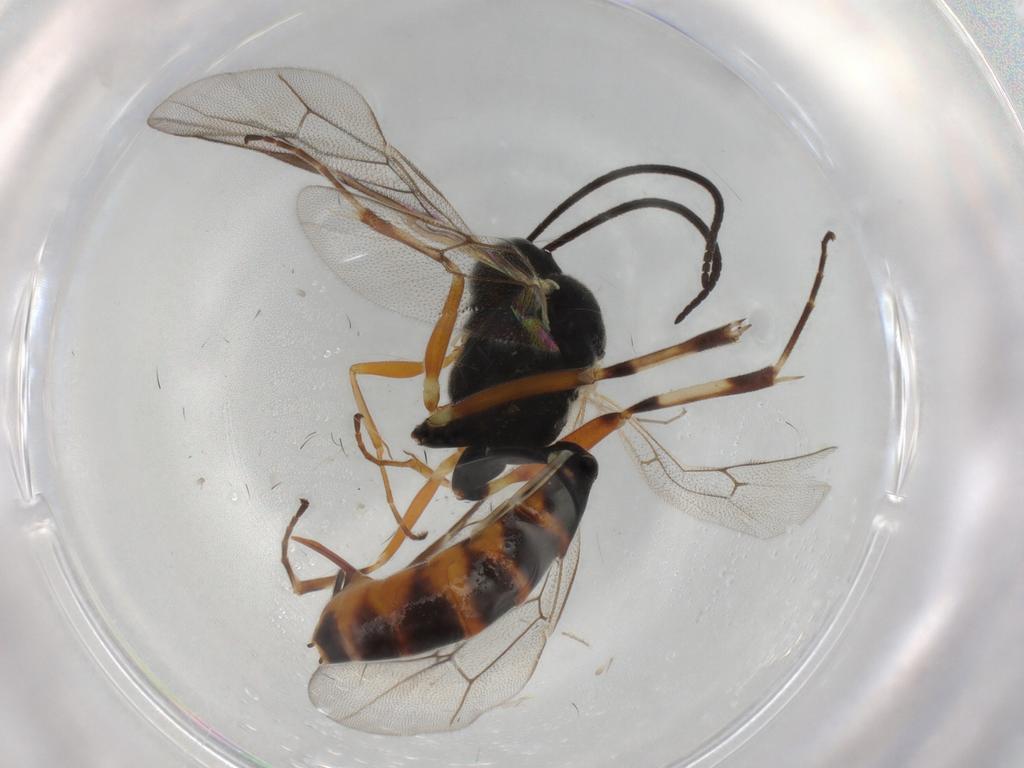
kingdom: Animalia
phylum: Arthropoda
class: Insecta
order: Hymenoptera
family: Ichneumonidae
